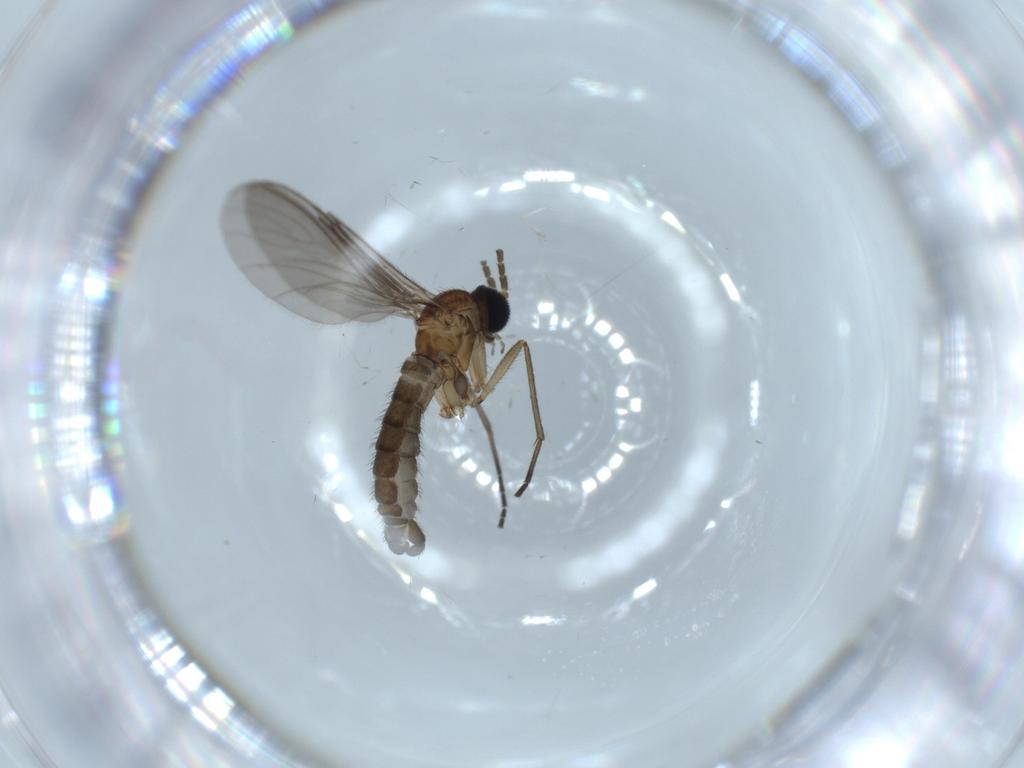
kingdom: Animalia
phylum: Arthropoda
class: Insecta
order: Diptera
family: Sciaridae
